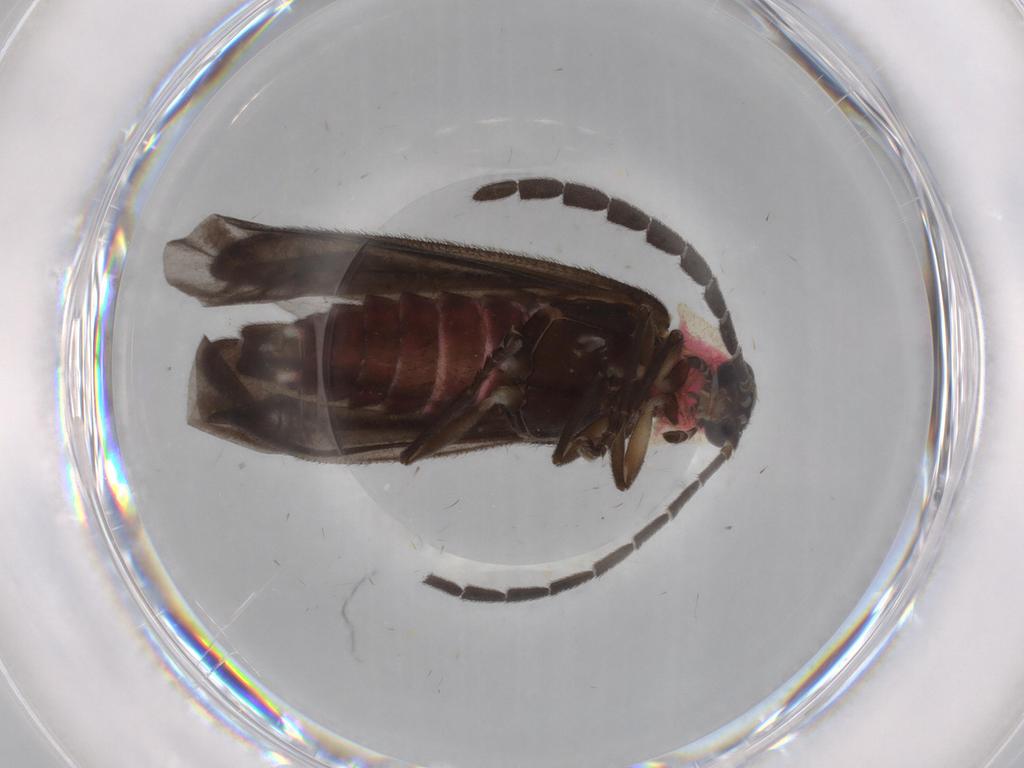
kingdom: Animalia
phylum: Arthropoda
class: Insecta
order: Coleoptera
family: Lampyridae
